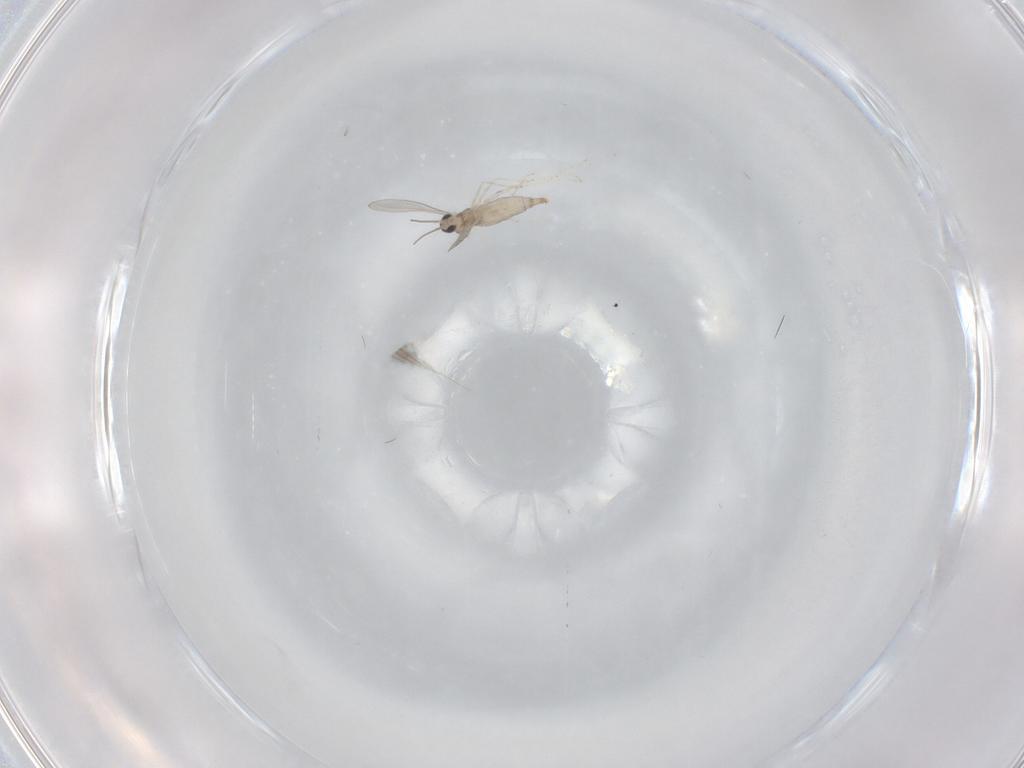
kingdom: Animalia
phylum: Arthropoda
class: Insecta
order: Diptera
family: Cecidomyiidae
